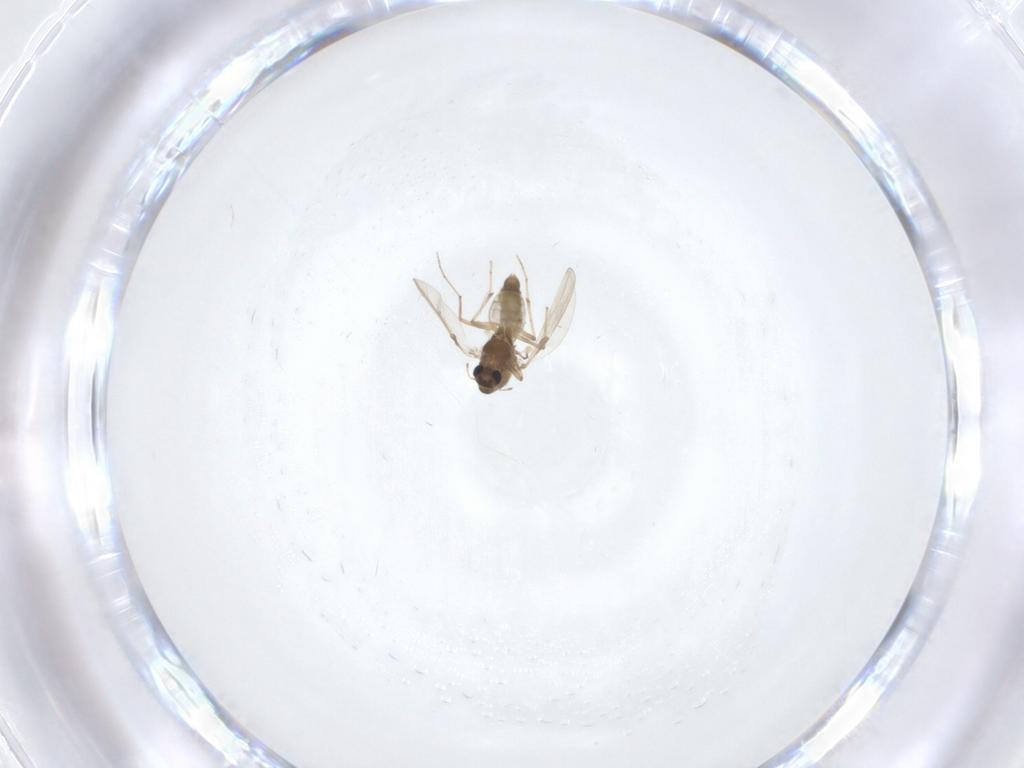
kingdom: Animalia
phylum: Arthropoda
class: Insecta
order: Diptera
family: Chironomidae
